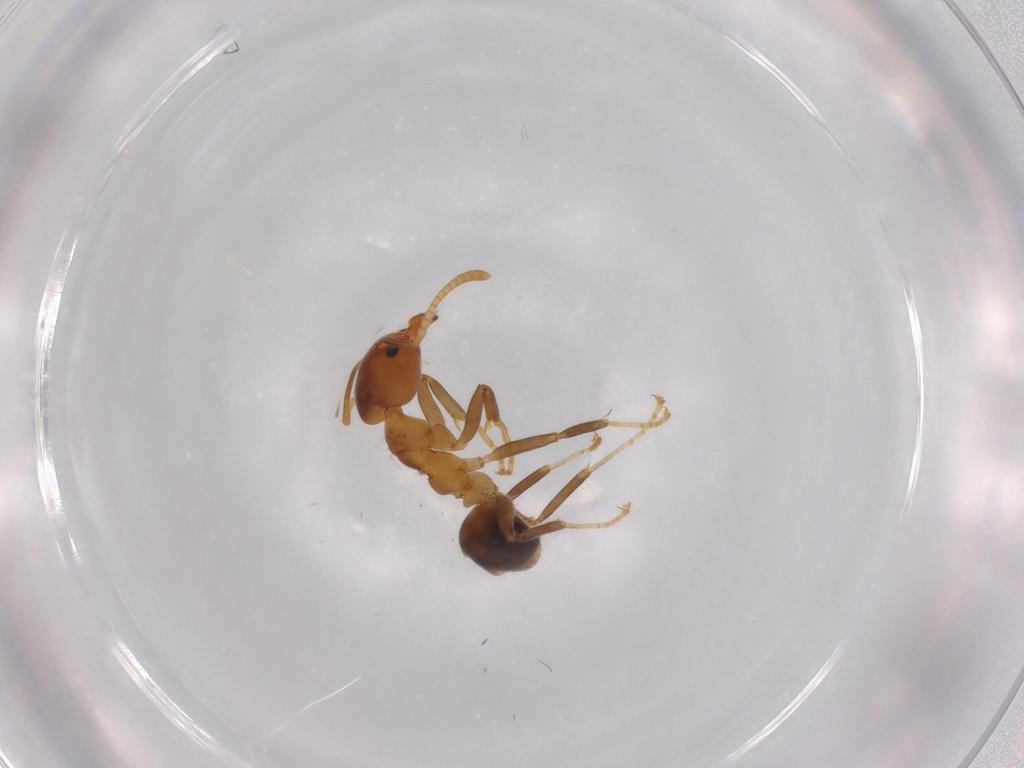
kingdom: Animalia
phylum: Arthropoda
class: Insecta
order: Hymenoptera
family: Formicidae
